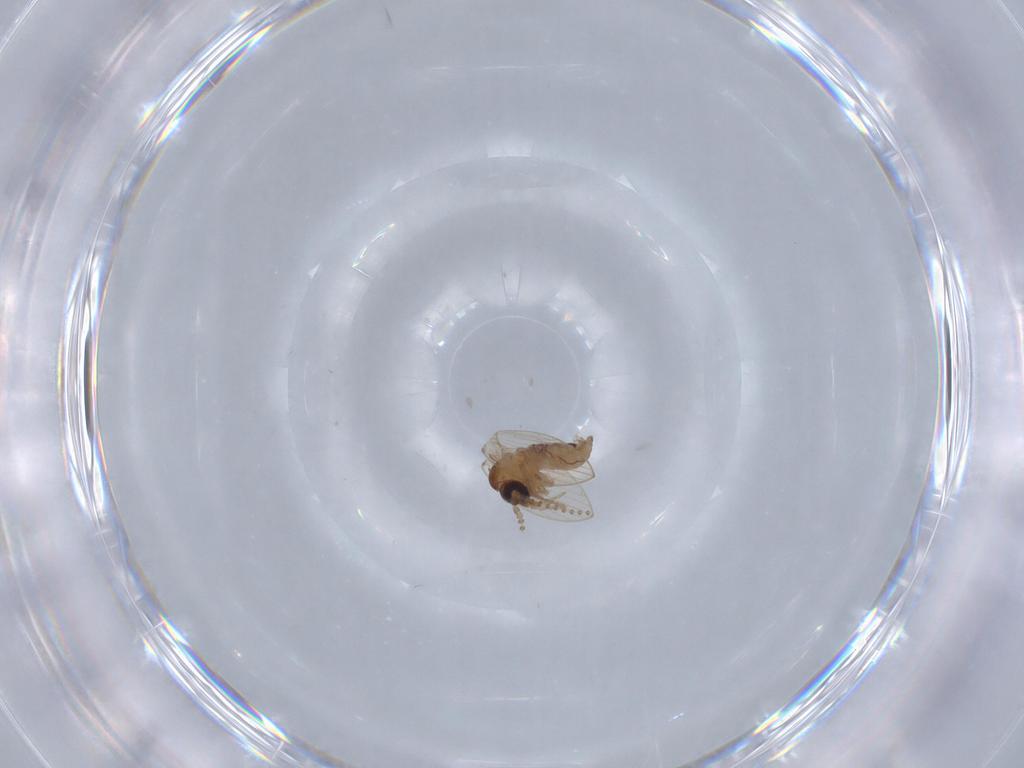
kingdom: Animalia
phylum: Arthropoda
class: Insecta
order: Diptera
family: Psychodidae
